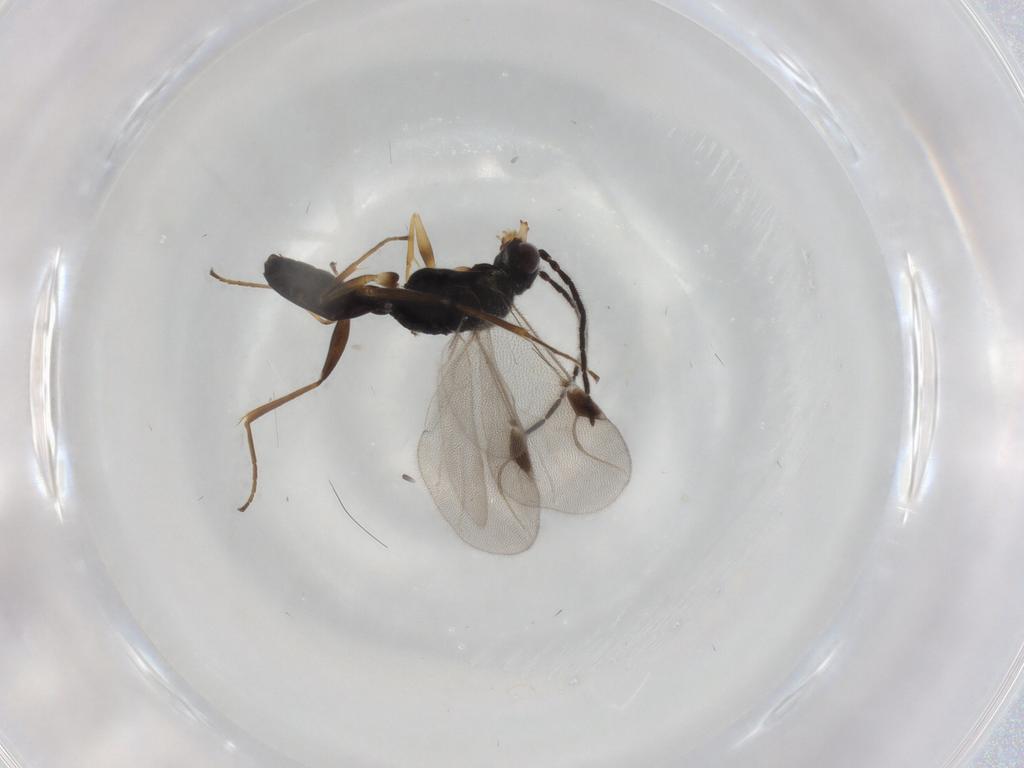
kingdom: Animalia
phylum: Arthropoda
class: Insecta
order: Hymenoptera
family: Dryinidae
